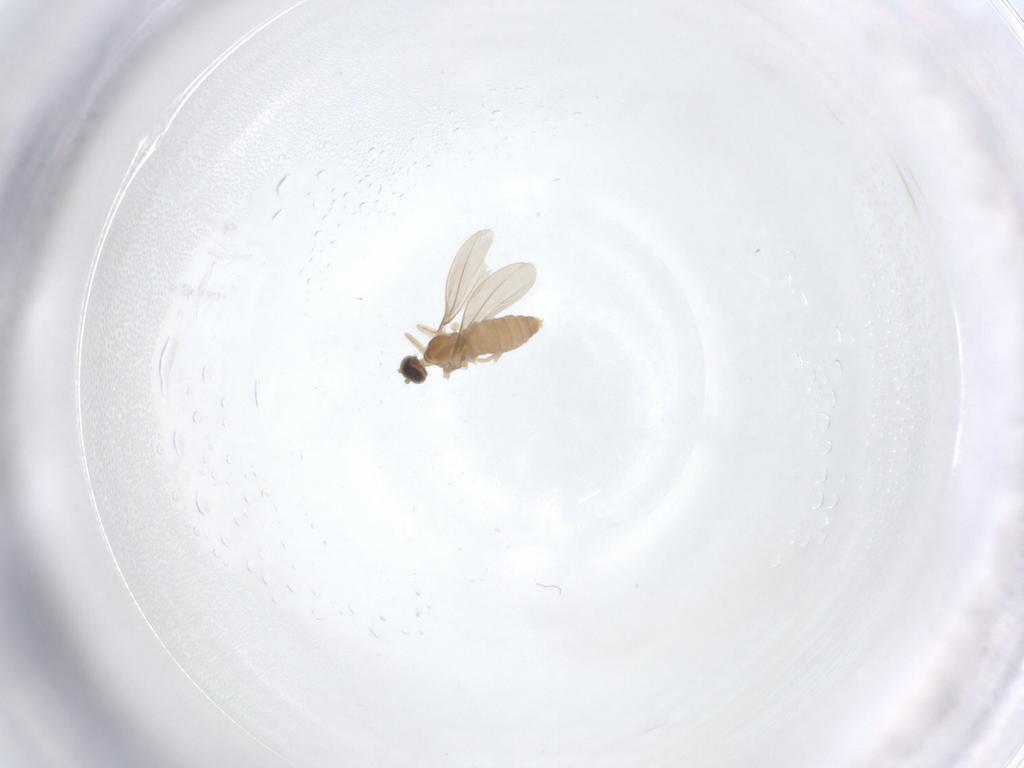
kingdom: Animalia
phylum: Arthropoda
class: Insecta
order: Diptera
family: Cecidomyiidae
